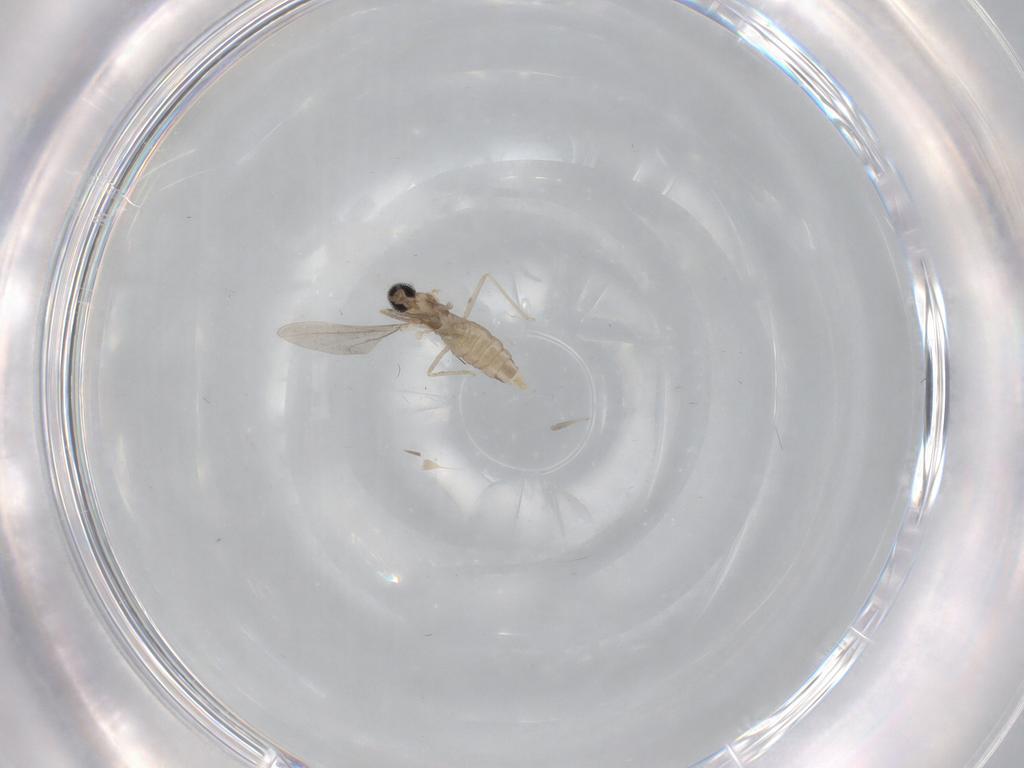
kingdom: Animalia
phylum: Arthropoda
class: Insecta
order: Diptera
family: Cecidomyiidae
